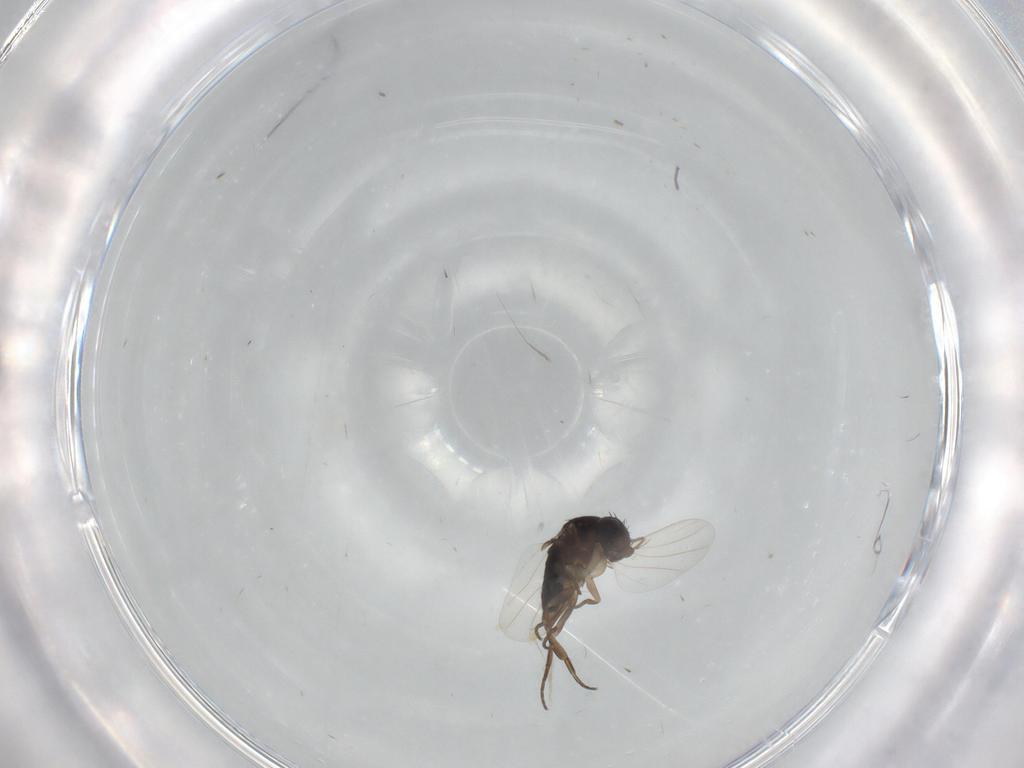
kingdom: Animalia
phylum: Arthropoda
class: Insecta
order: Diptera
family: Phoridae
